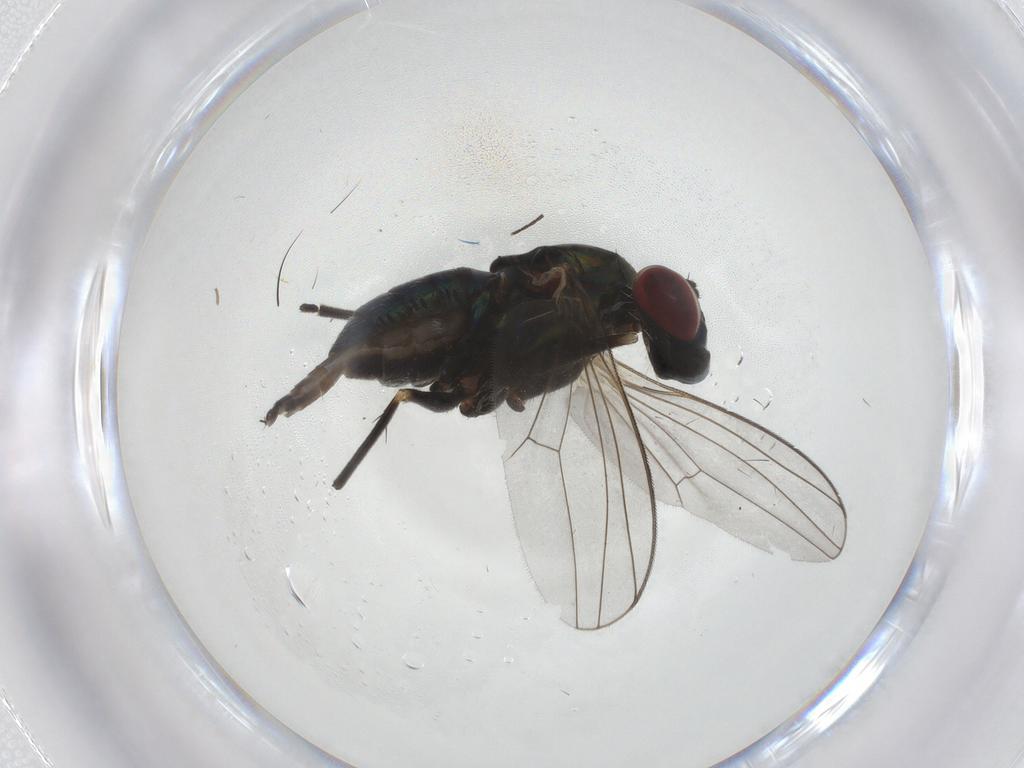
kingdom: Animalia
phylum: Arthropoda
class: Insecta
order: Diptera
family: Dolichopodidae
